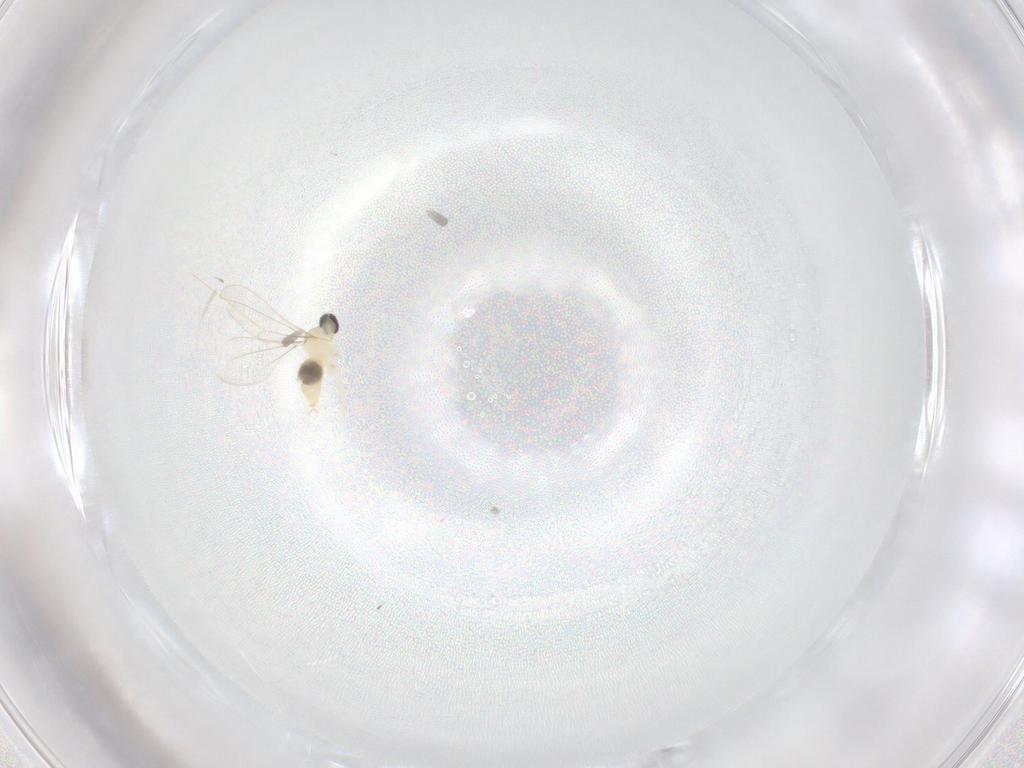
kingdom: Animalia
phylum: Arthropoda
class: Insecta
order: Diptera
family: Cecidomyiidae
